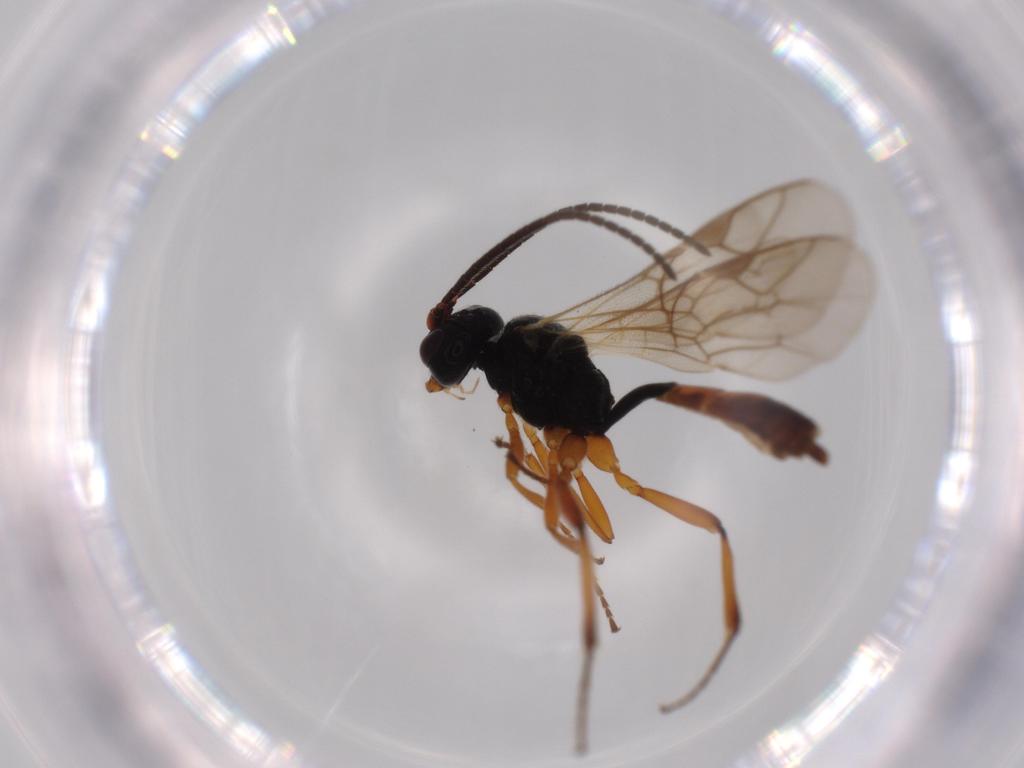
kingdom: Animalia
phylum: Arthropoda
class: Insecta
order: Hymenoptera
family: Ichneumonidae
